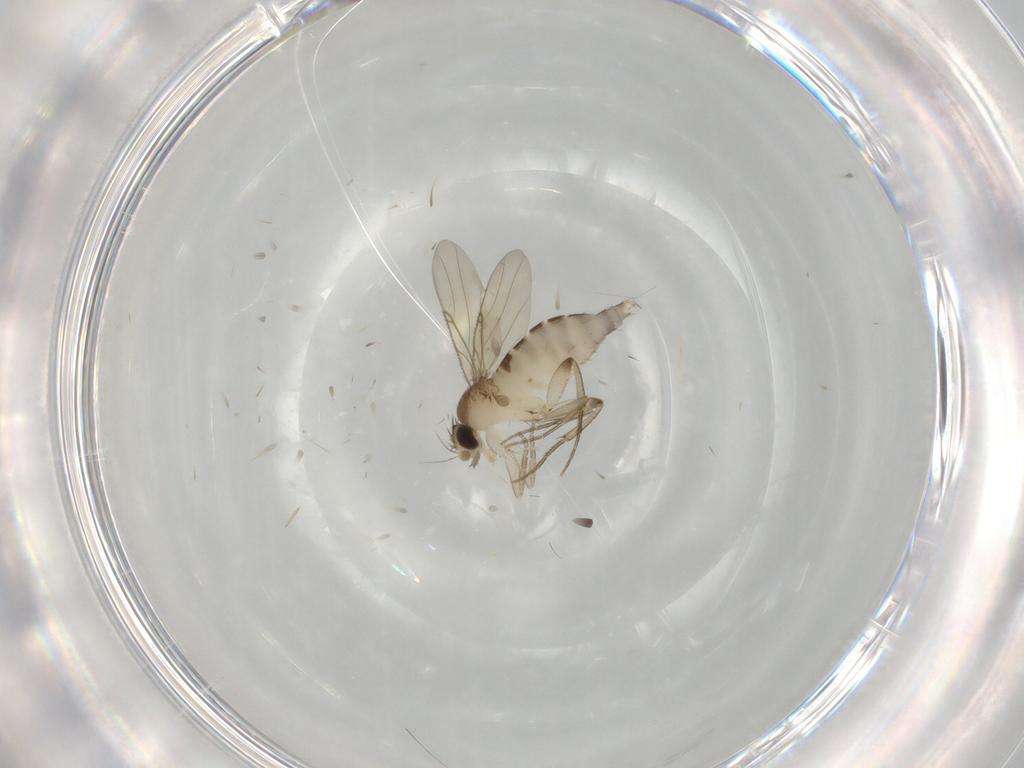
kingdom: Animalia
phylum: Arthropoda
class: Insecta
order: Diptera
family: Phoridae
